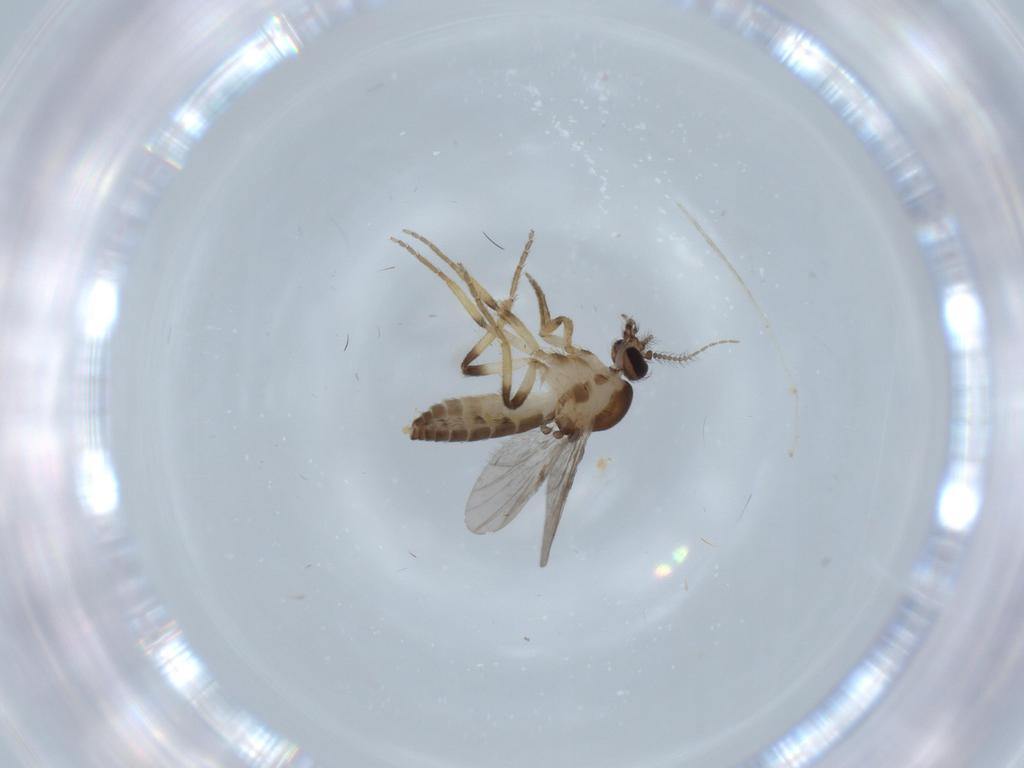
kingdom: Animalia
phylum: Arthropoda
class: Insecta
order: Diptera
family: Ceratopogonidae
